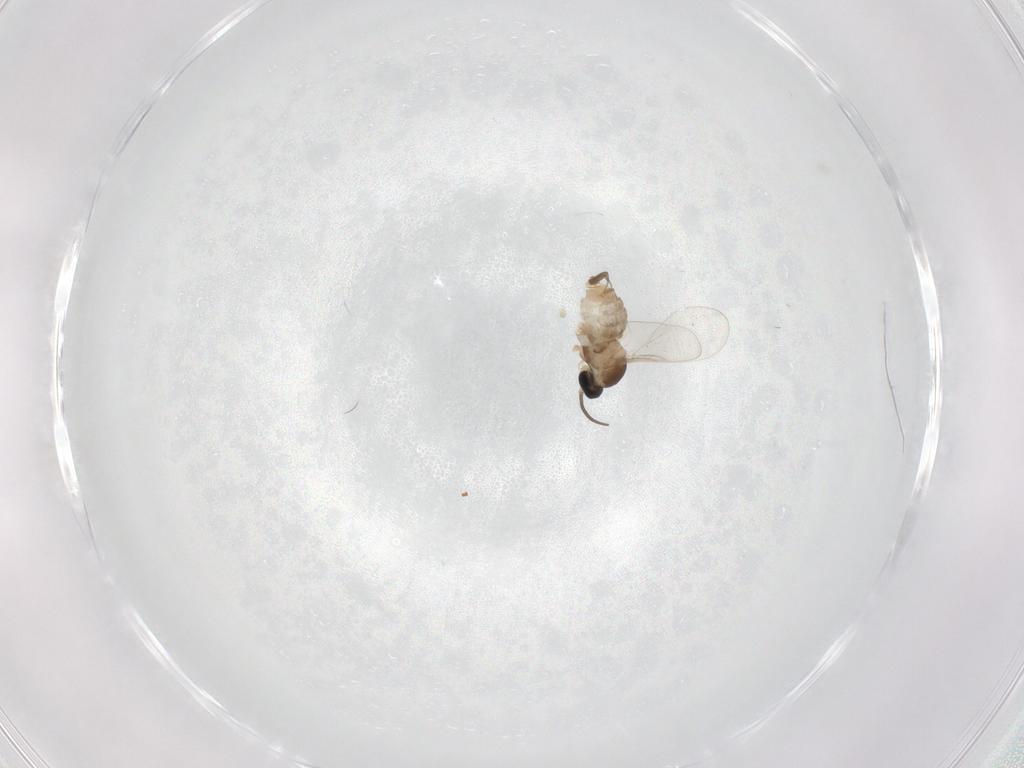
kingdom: Animalia
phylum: Arthropoda
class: Insecta
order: Diptera
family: Cecidomyiidae
